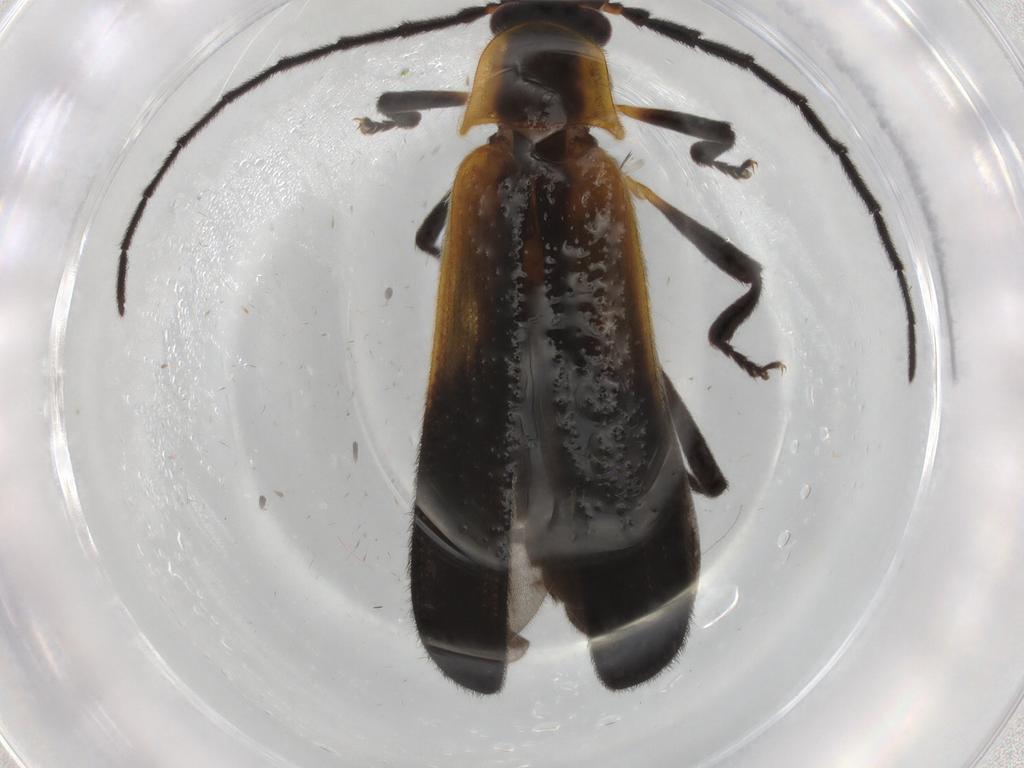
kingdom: Animalia
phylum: Arthropoda
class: Insecta
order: Coleoptera
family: Lycidae
